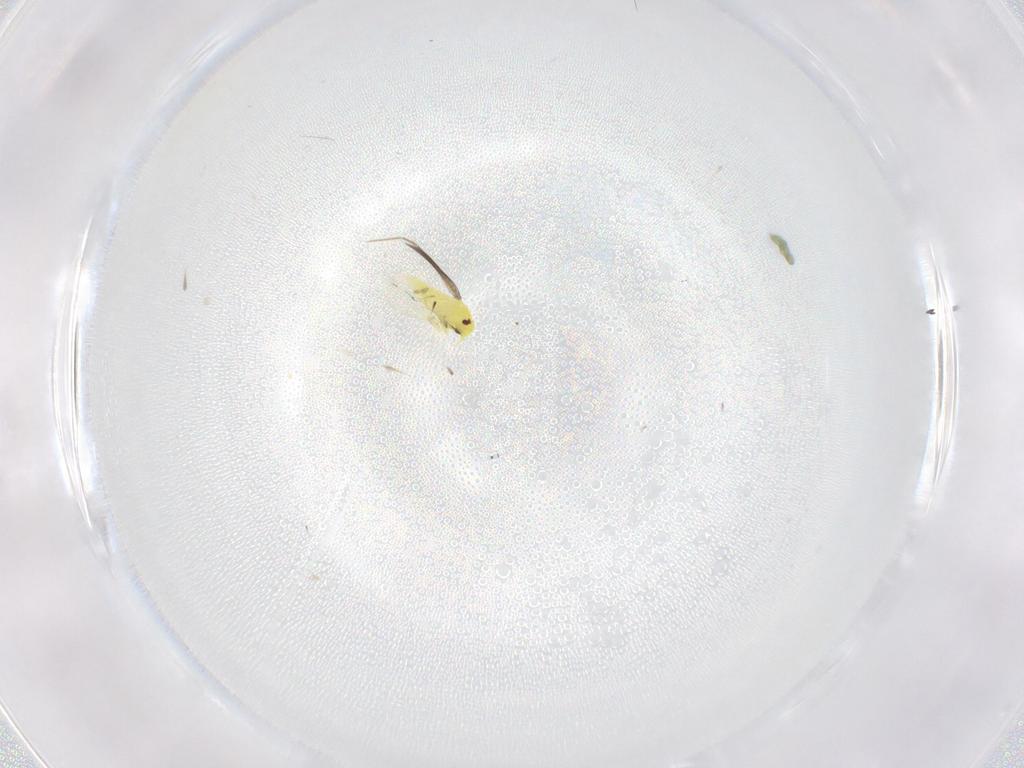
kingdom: Animalia
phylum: Arthropoda
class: Insecta
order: Hemiptera
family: Aleyrodidae
